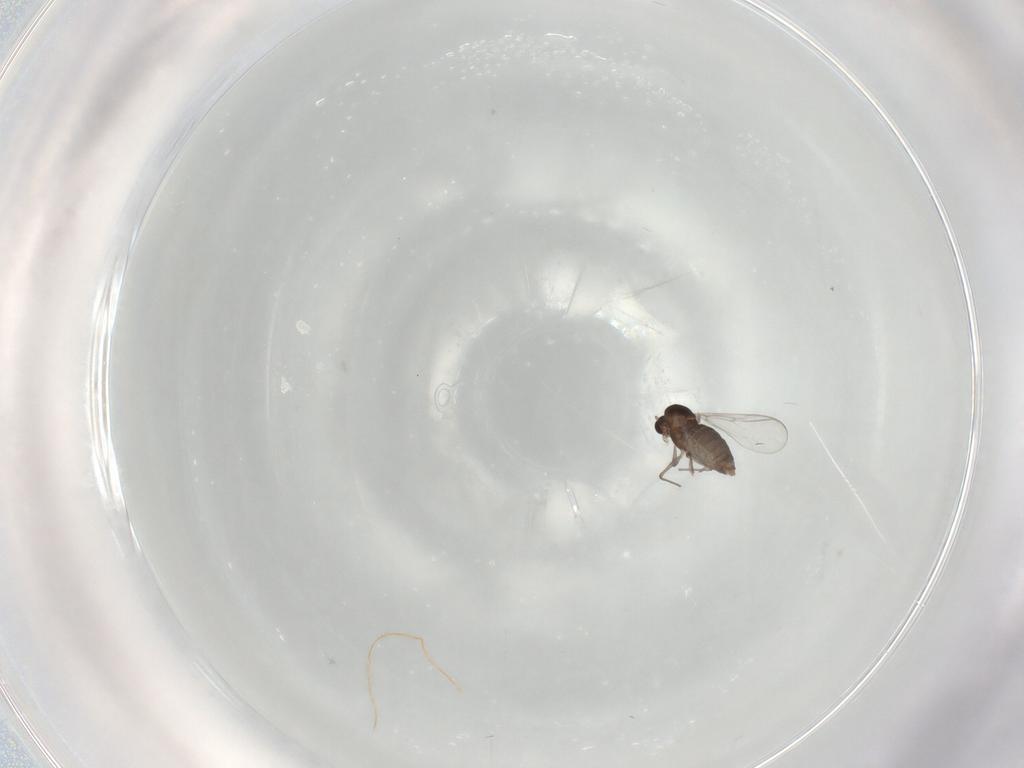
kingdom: Animalia
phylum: Arthropoda
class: Insecta
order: Diptera
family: Chironomidae
